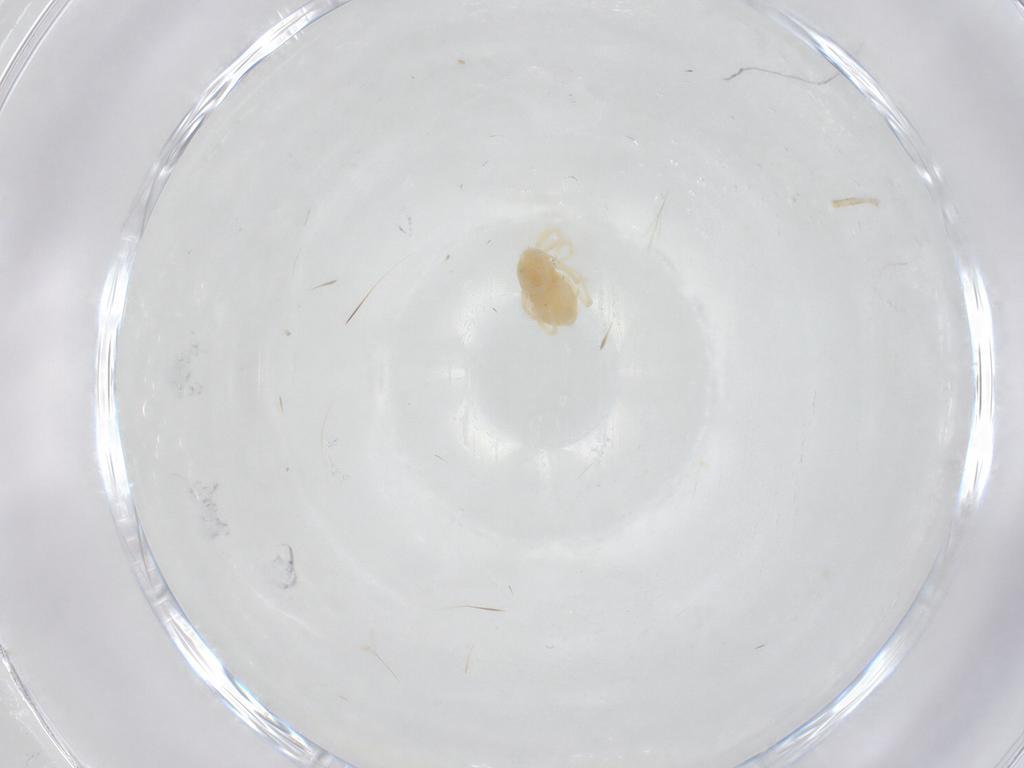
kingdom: Animalia
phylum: Arthropoda
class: Arachnida
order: Trombidiformes
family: Anystidae
